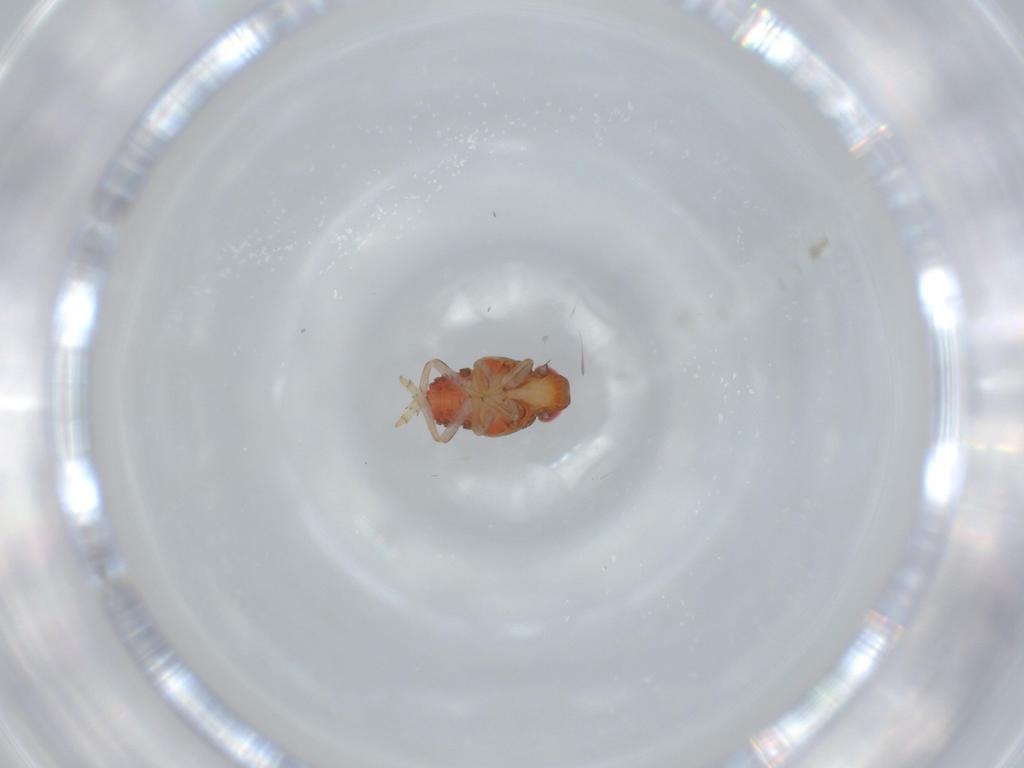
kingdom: Animalia
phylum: Arthropoda
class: Insecta
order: Hemiptera
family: Issidae
